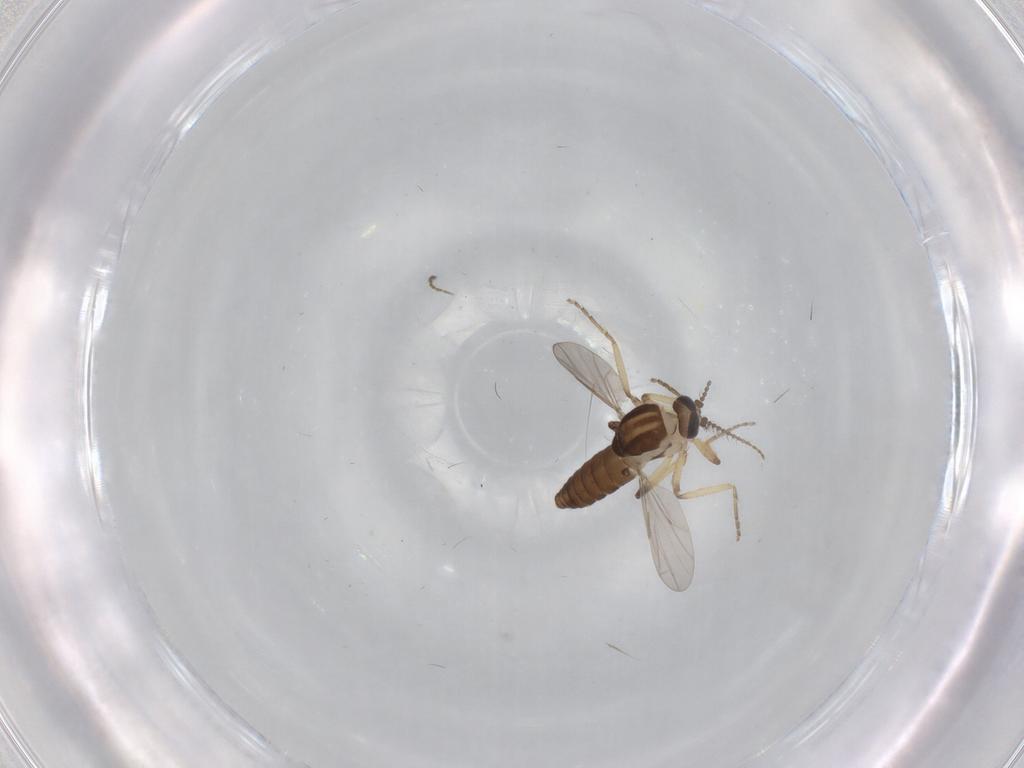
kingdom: Animalia
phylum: Arthropoda
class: Insecta
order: Diptera
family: Ceratopogonidae
